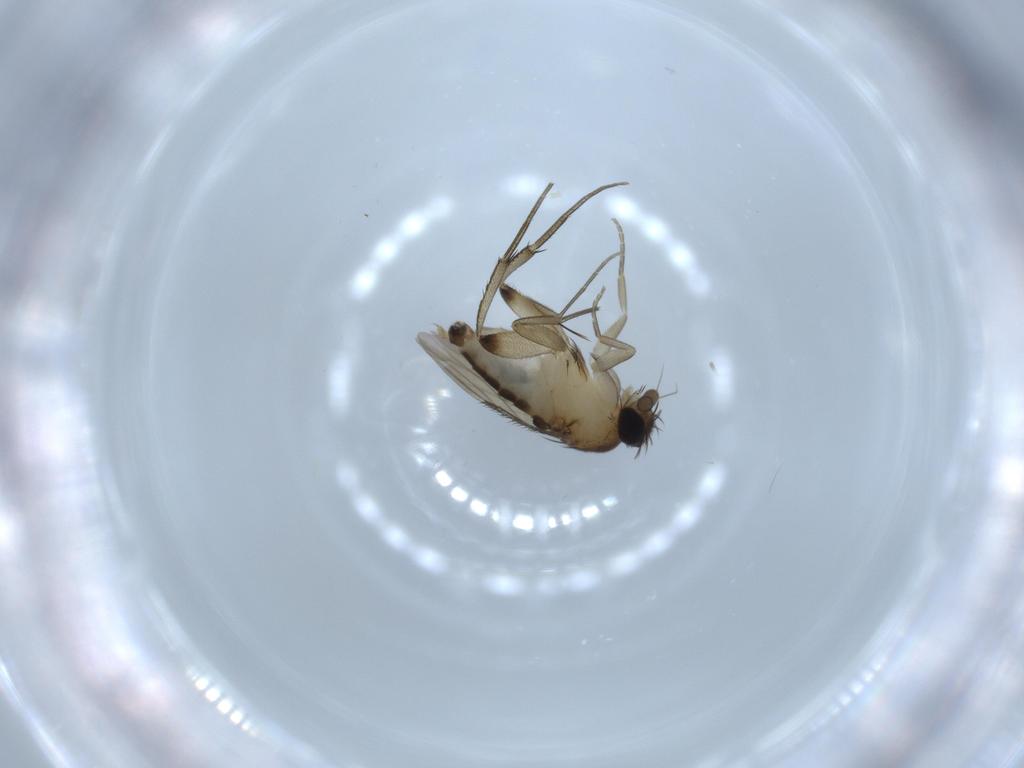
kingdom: Animalia
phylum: Arthropoda
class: Insecta
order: Diptera
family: Phoridae
